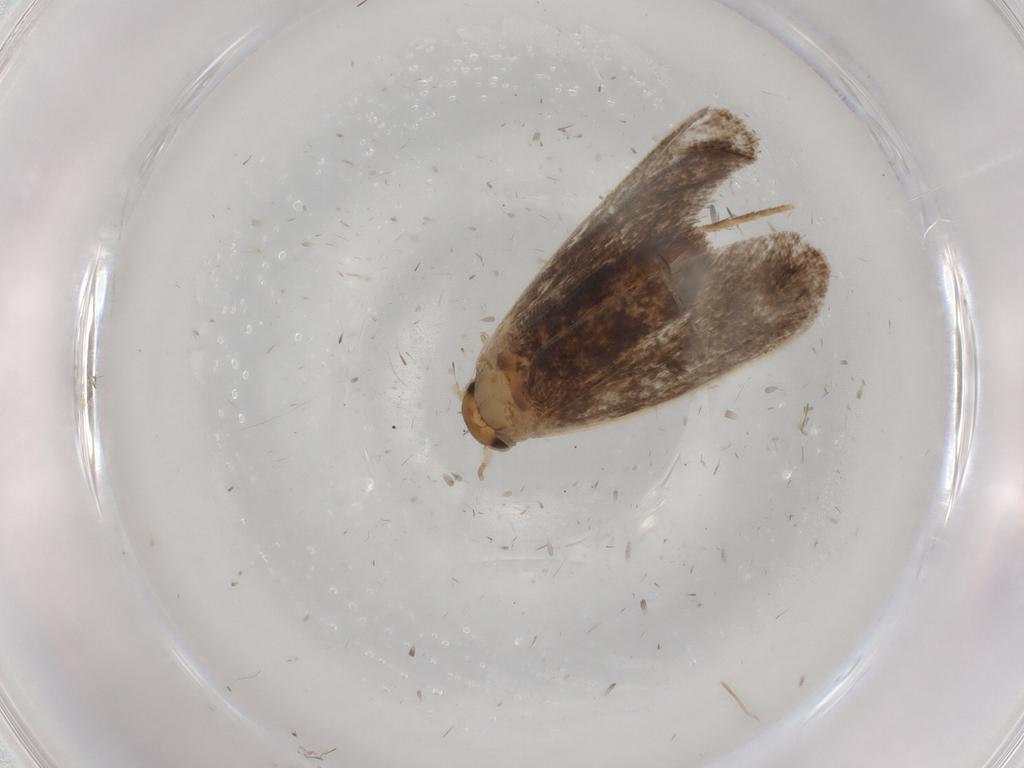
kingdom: Animalia
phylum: Arthropoda
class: Insecta
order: Lepidoptera
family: Dryadaulidae
